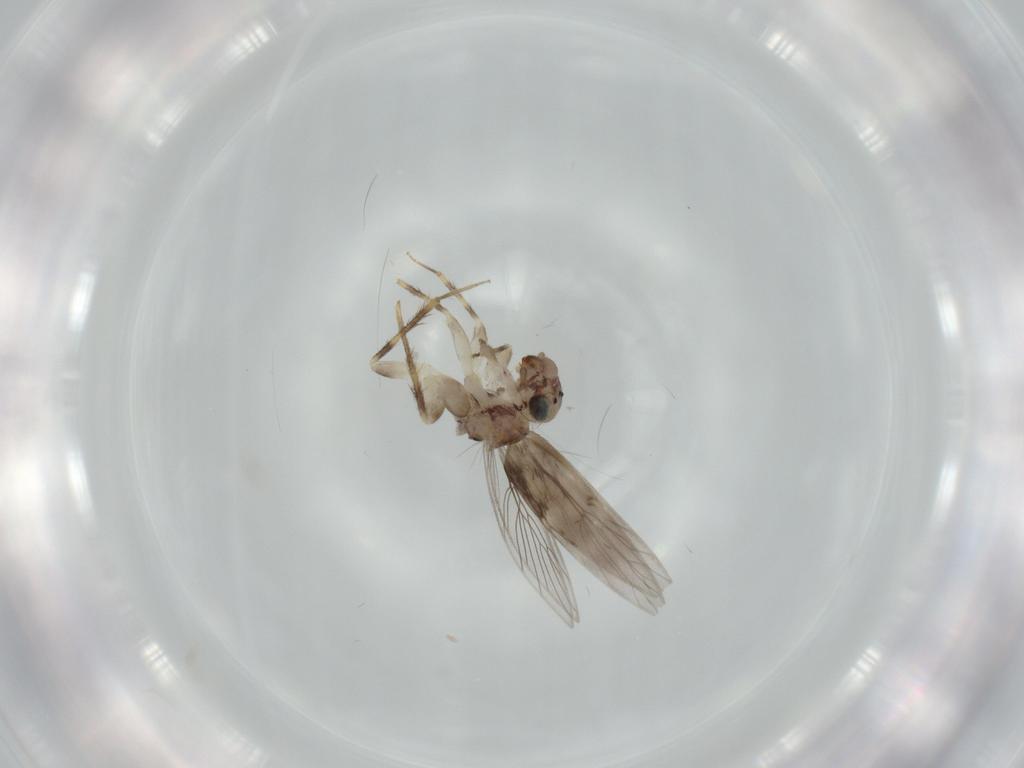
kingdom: Animalia
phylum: Arthropoda
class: Insecta
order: Psocodea
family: Lepidopsocidae
